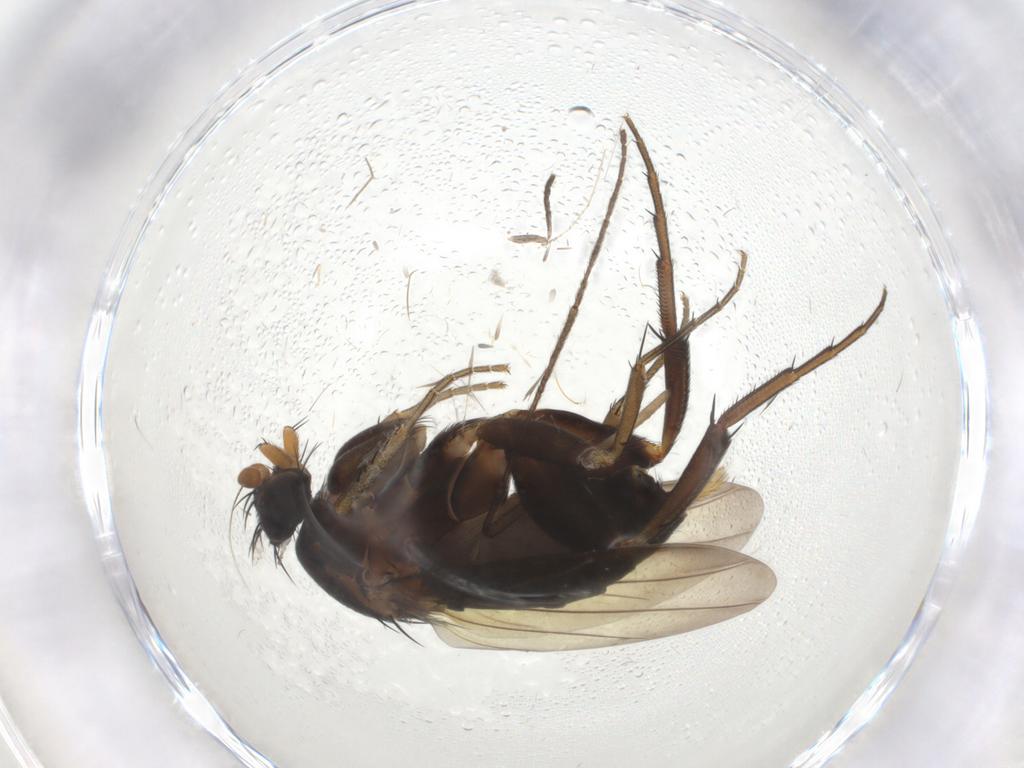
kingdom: Animalia
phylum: Arthropoda
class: Insecta
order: Diptera
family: Phoridae
